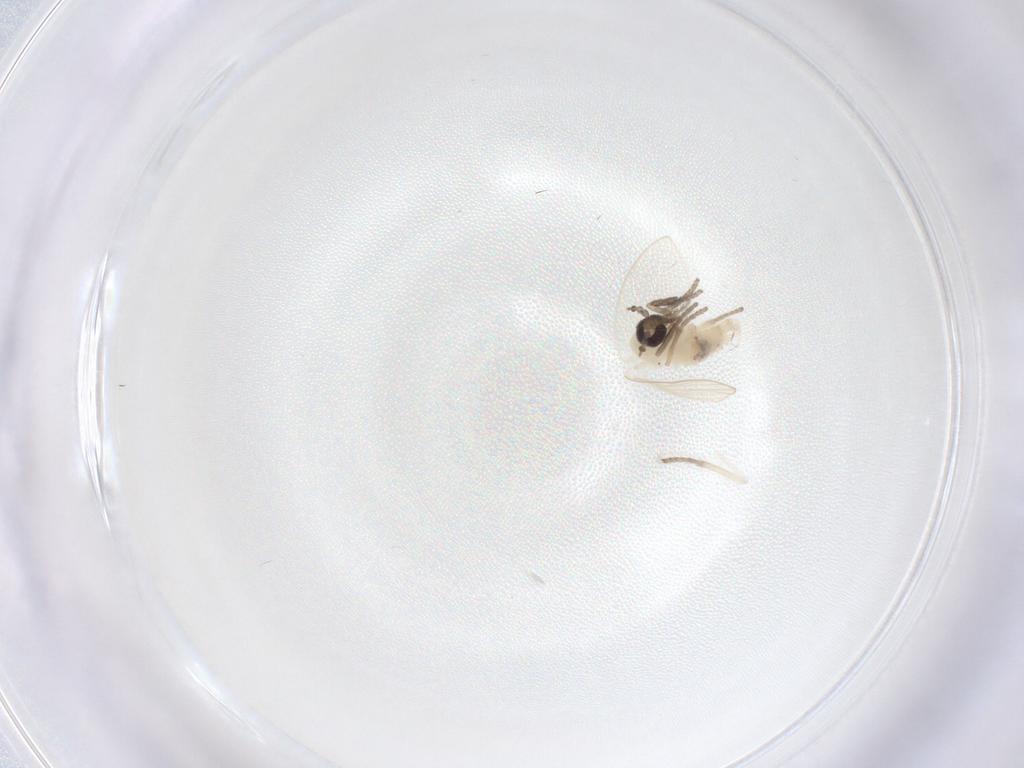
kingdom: Animalia
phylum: Arthropoda
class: Insecta
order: Diptera
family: Psychodidae
